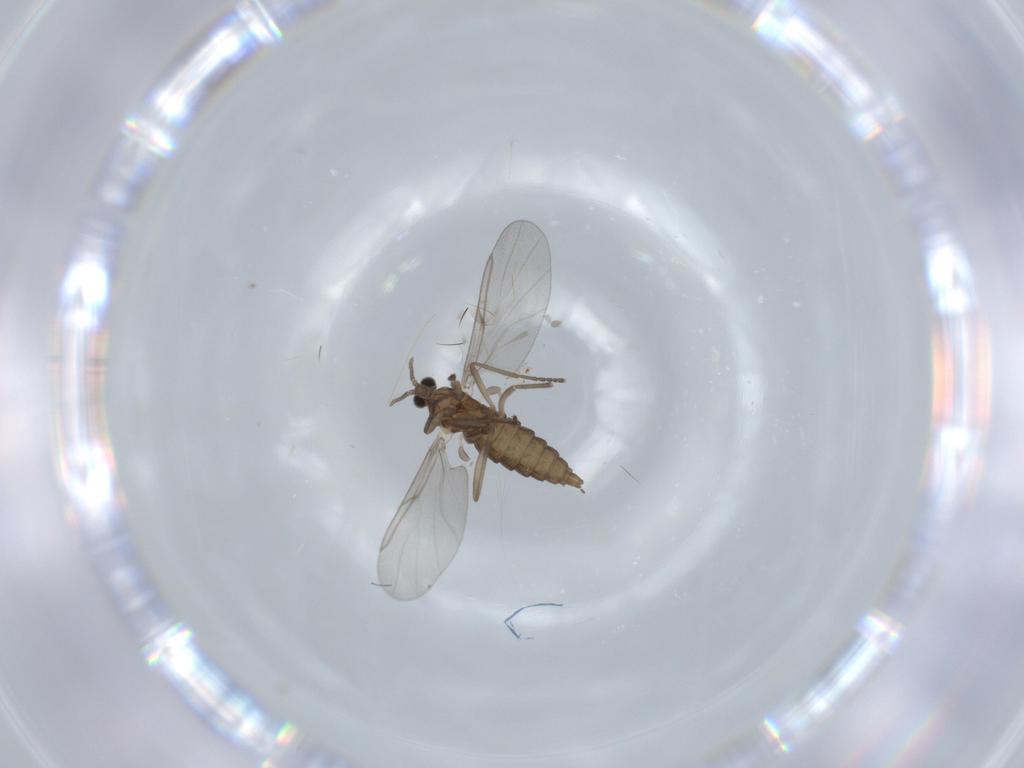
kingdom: Animalia
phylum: Arthropoda
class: Insecta
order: Diptera
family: Cecidomyiidae
